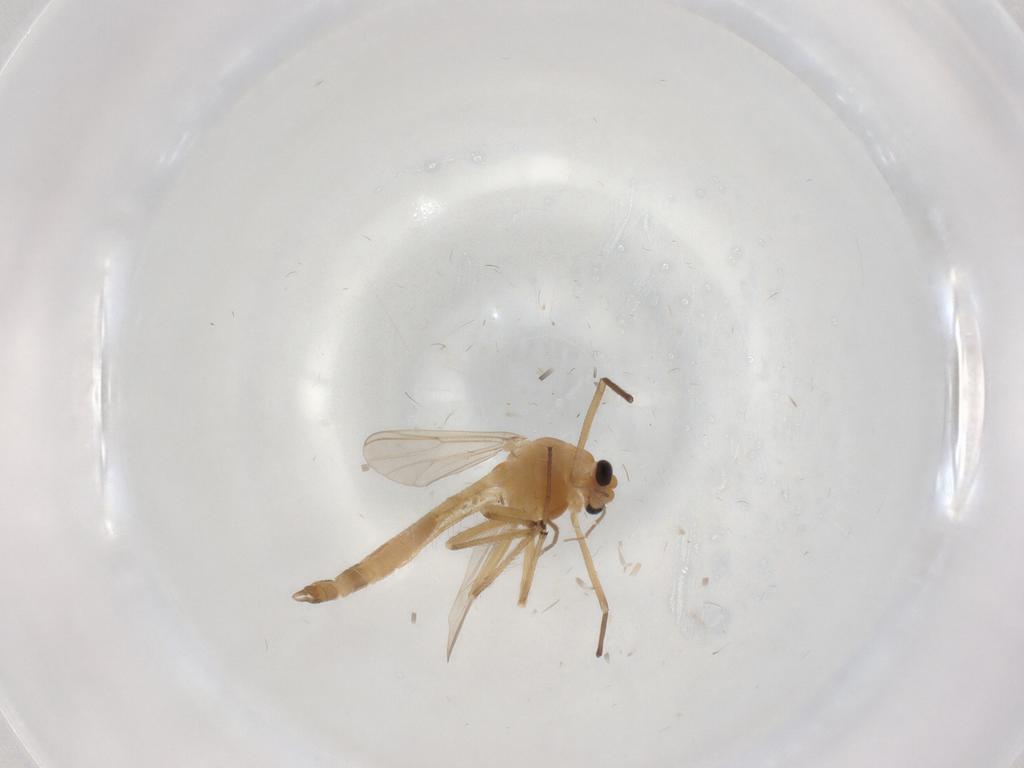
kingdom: Animalia
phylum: Arthropoda
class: Insecta
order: Diptera
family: Chironomidae
